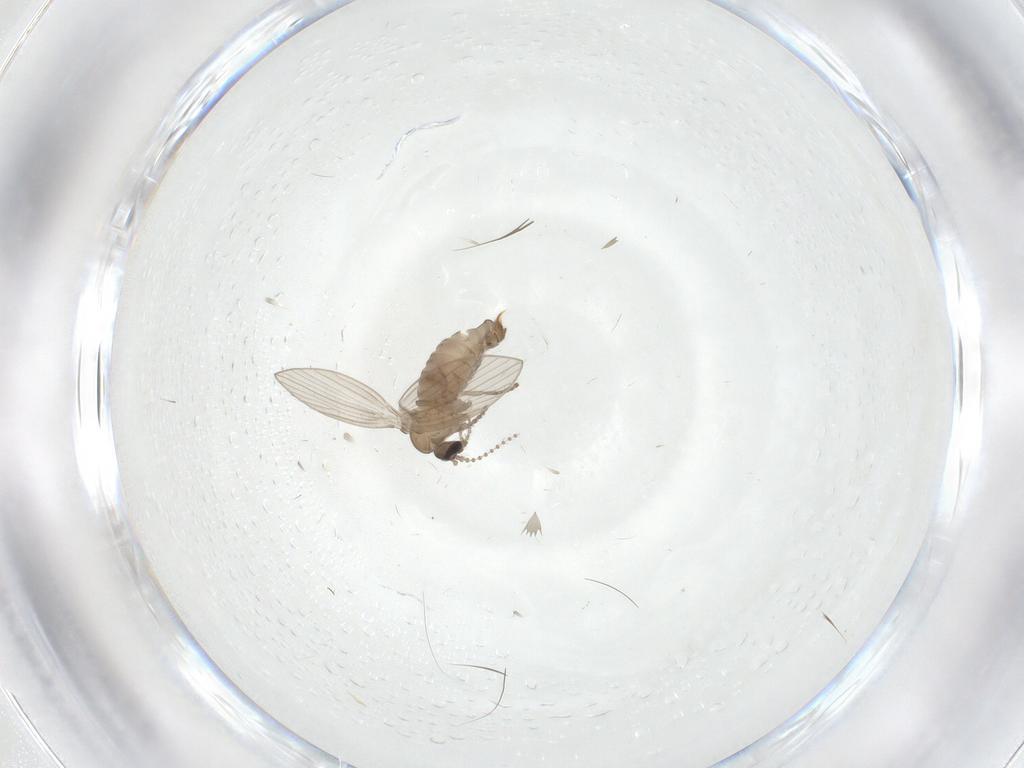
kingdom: Animalia
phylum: Arthropoda
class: Insecta
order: Diptera
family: Psychodidae
